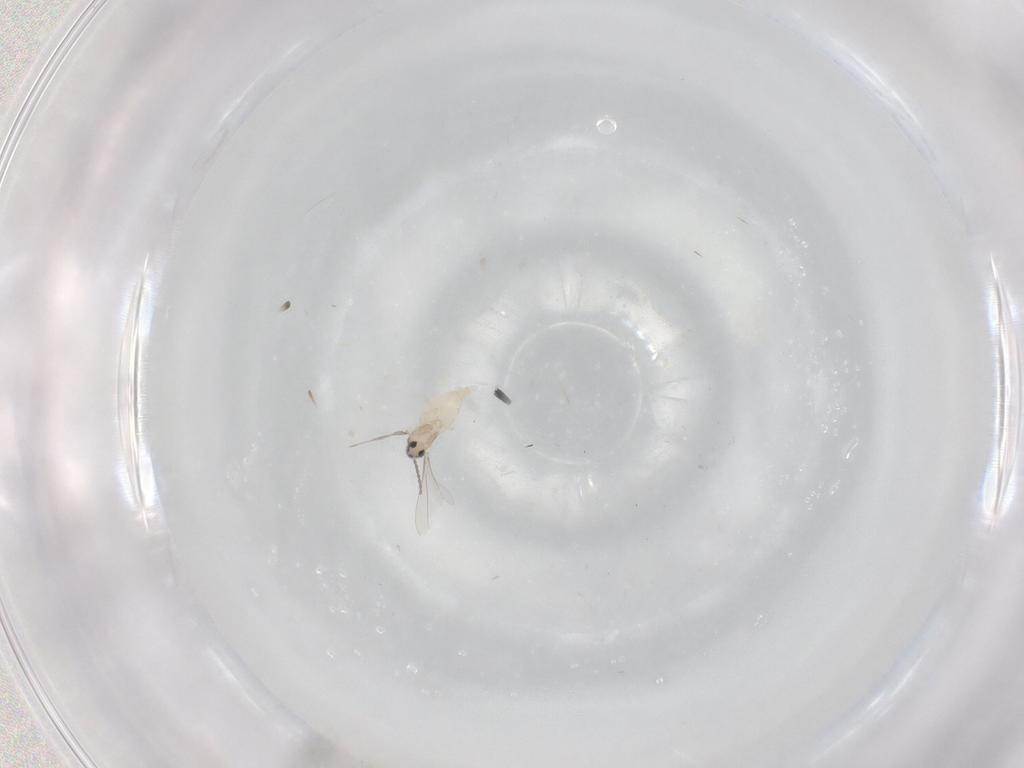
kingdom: Animalia
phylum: Arthropoda
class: Insecta
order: Diptera
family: Cecidomyiidae
